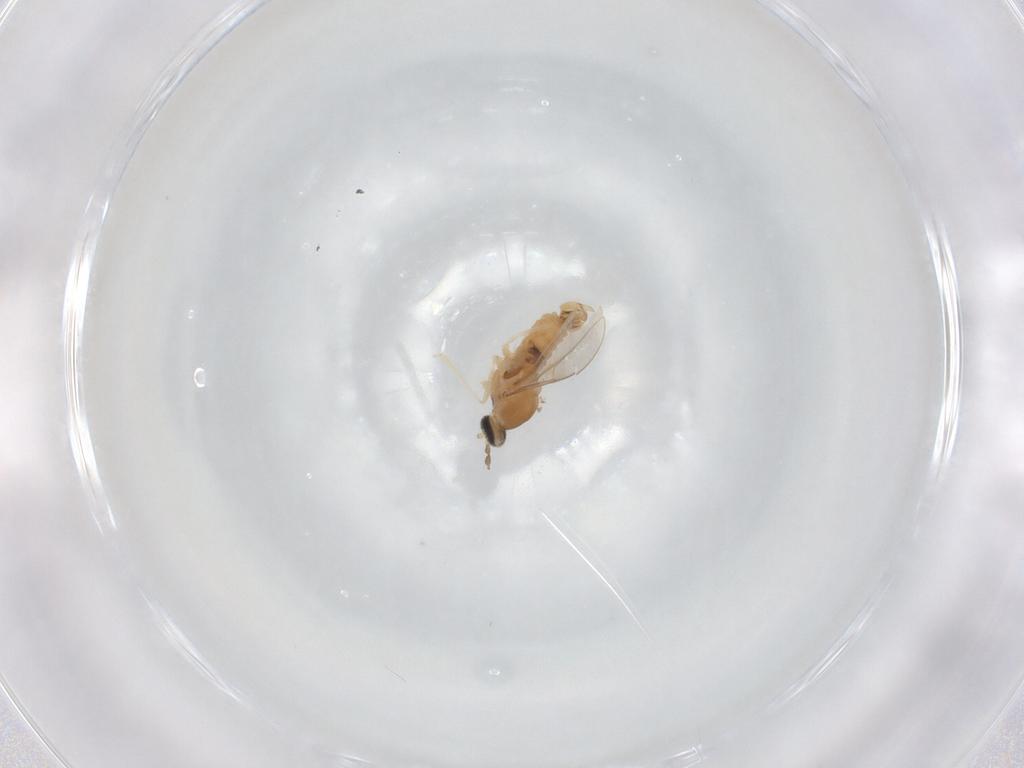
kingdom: Animalia
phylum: Arthropoda
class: Insecta
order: Diptera
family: Cecidomyiidae
